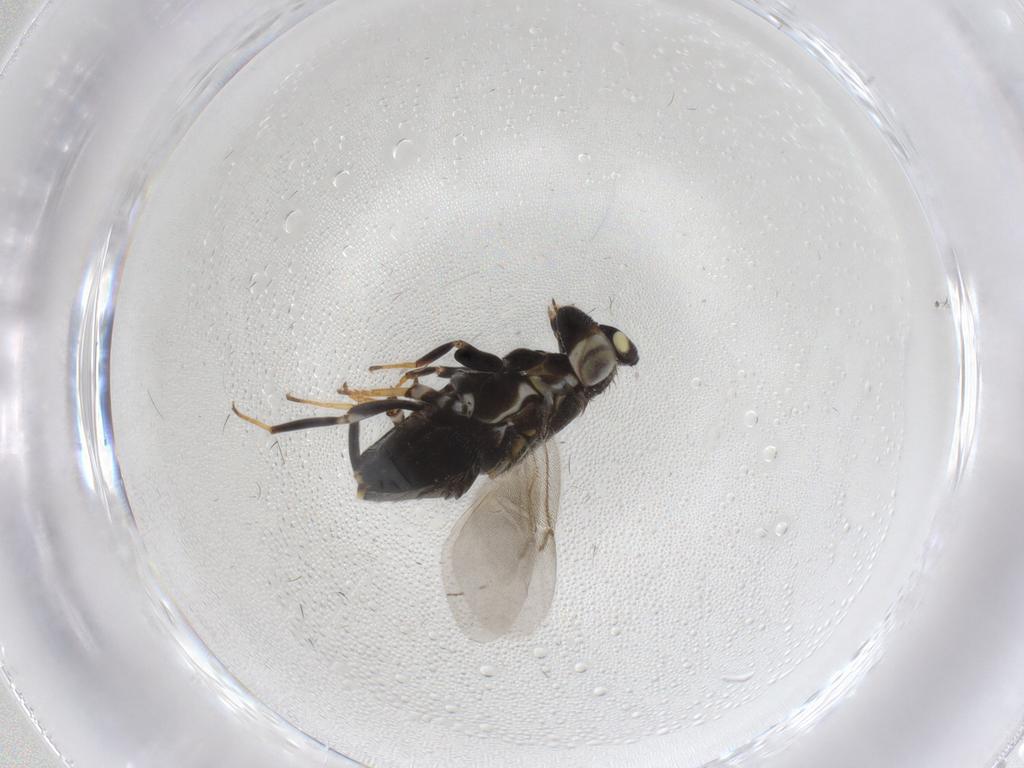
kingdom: Animalia
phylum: Arthropoda
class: Insecta
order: Hymenoptera
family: Encyrtidae
